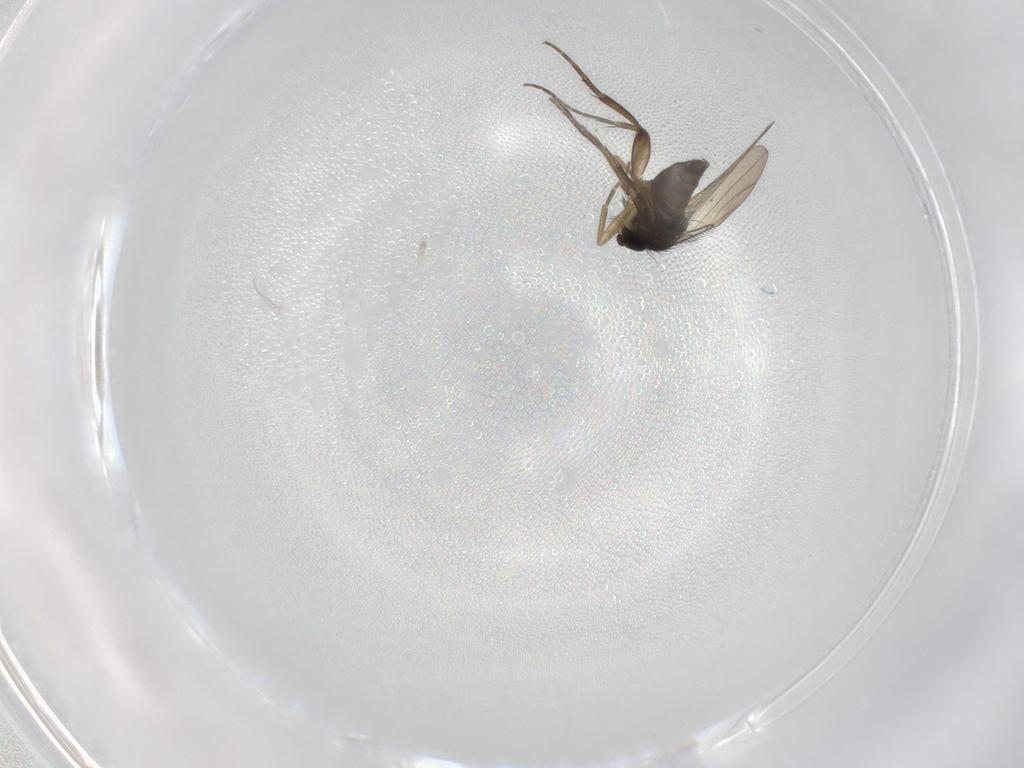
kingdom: Animalia
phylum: Arthropoda
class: Insecta
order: Diptera
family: Phoridae
